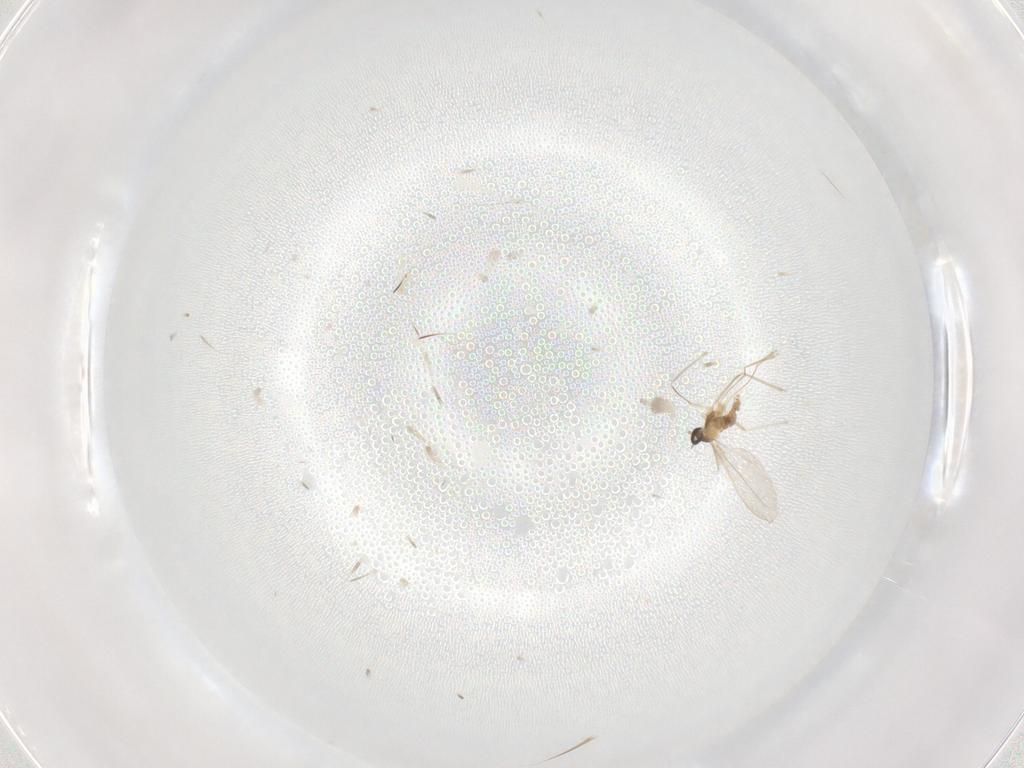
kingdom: Animalia
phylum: Arthropoda
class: Insecta
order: Diptera
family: Cecidomyiidae
